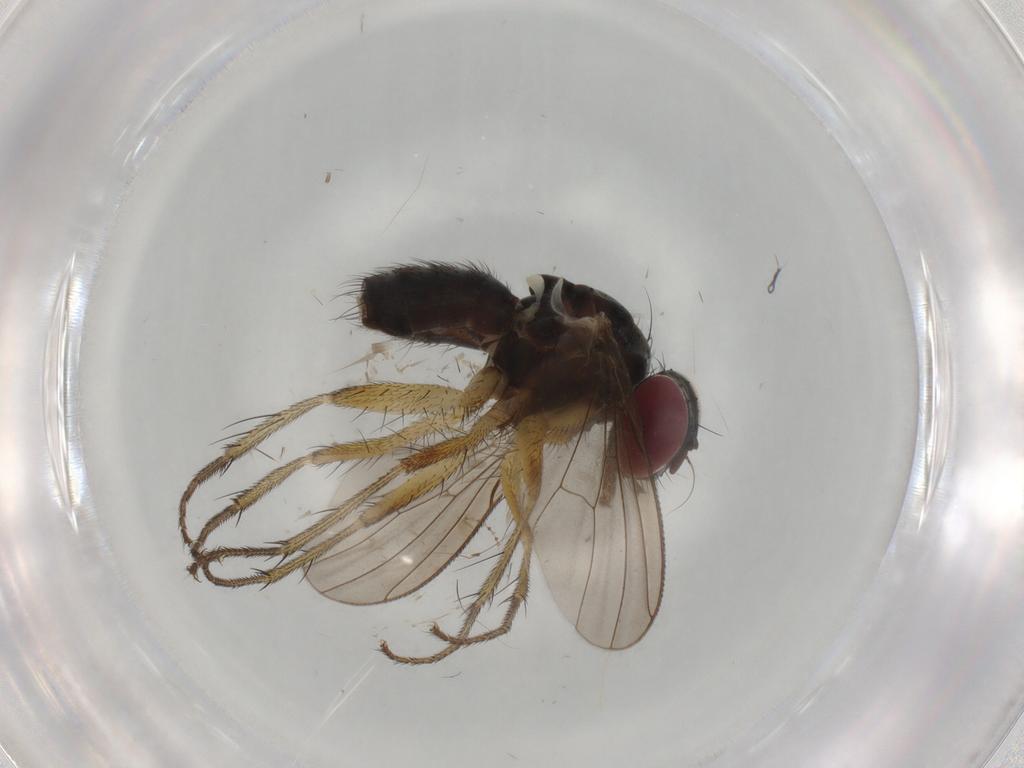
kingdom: Animalia
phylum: Arthropoda
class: Insecta
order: Diptera
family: Muscidae
